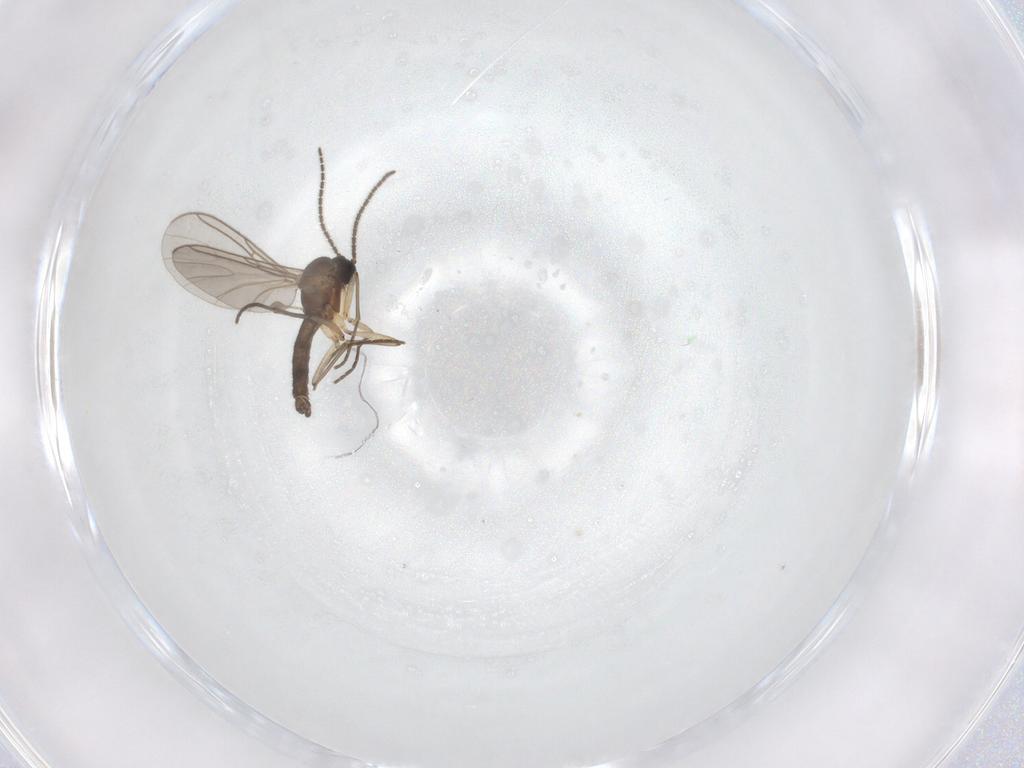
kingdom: Animalia
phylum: Arthropoda
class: Insecta
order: Diptera
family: Sciaridae
